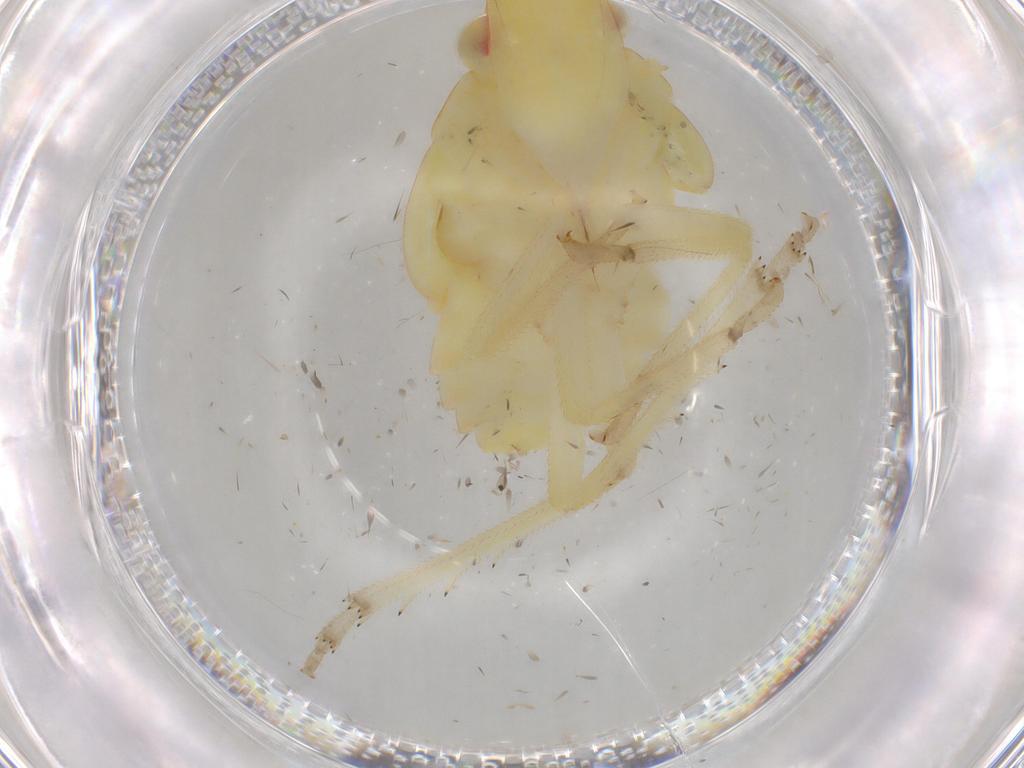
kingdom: Animalia
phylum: Arthropoda
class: Insecta
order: Hemiptera
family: Tropiduchidae
